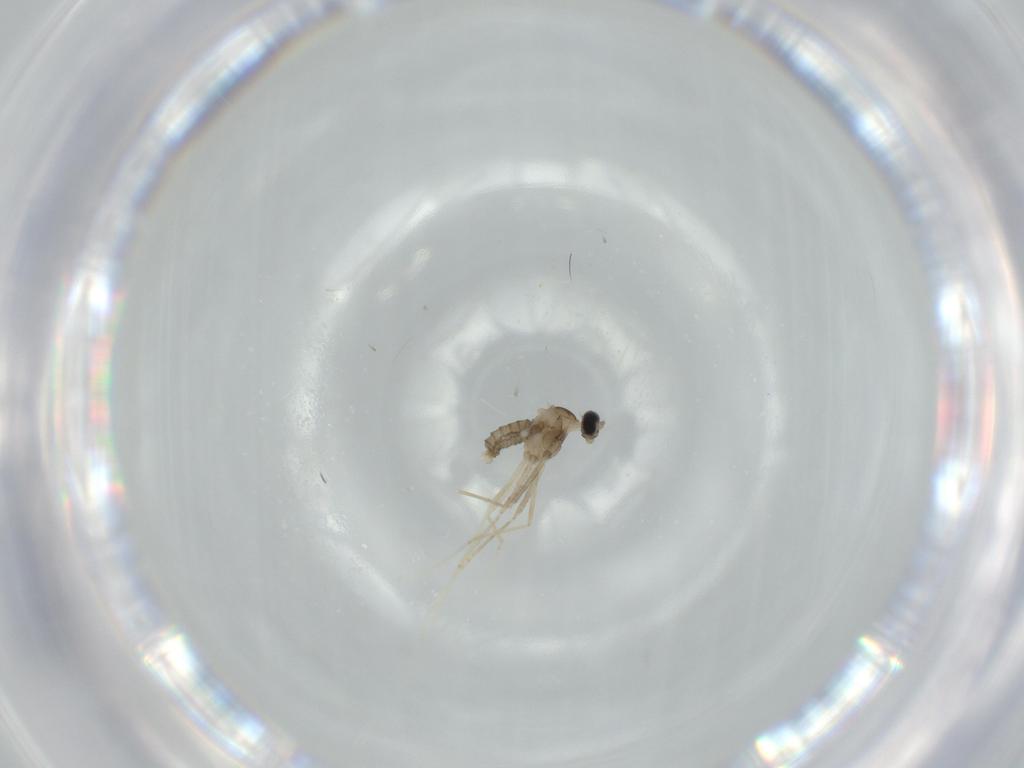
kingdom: Animalia
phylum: Arthropoda
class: Insecta
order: Diptera
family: Cecidomyiidae
